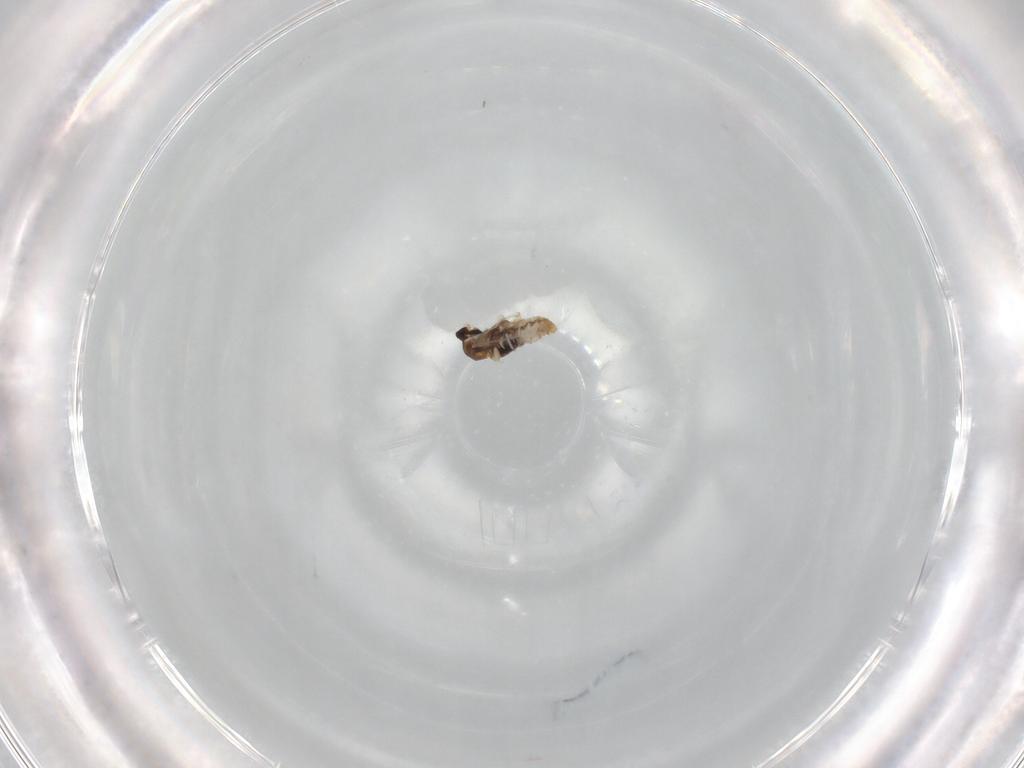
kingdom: Animalia
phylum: Arthropoda
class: Insecta
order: Diptera
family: Cecidomyiidae
